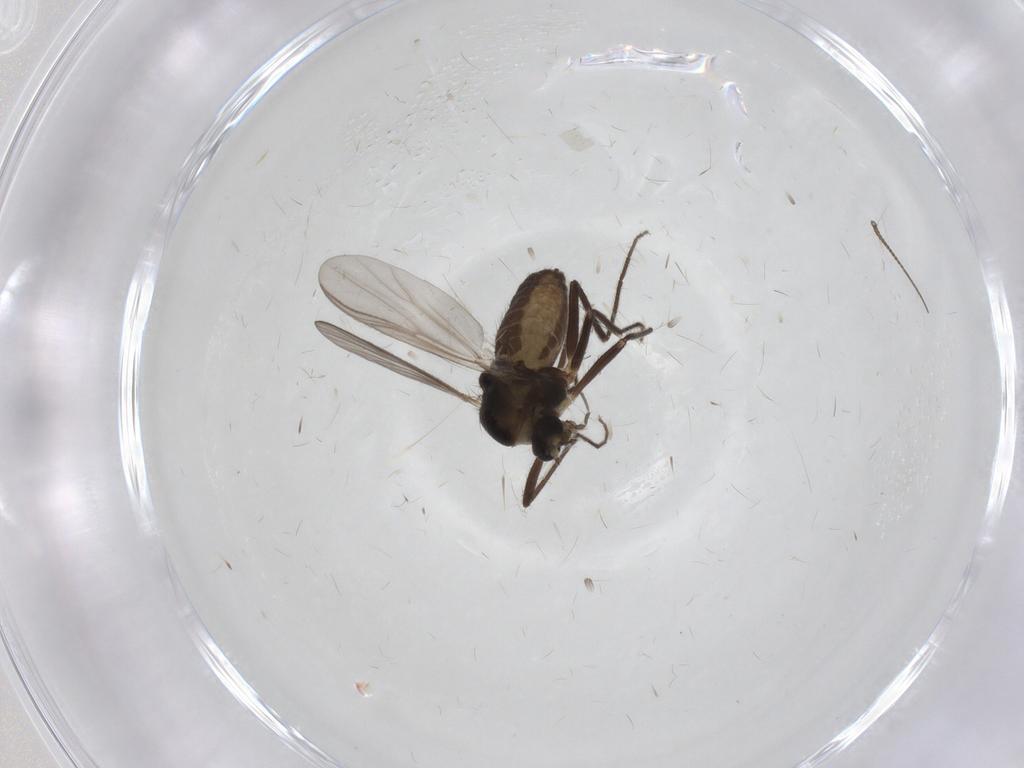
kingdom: Animalia
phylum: Arthropoda
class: Insecta
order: Diptera
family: Chironomidae
